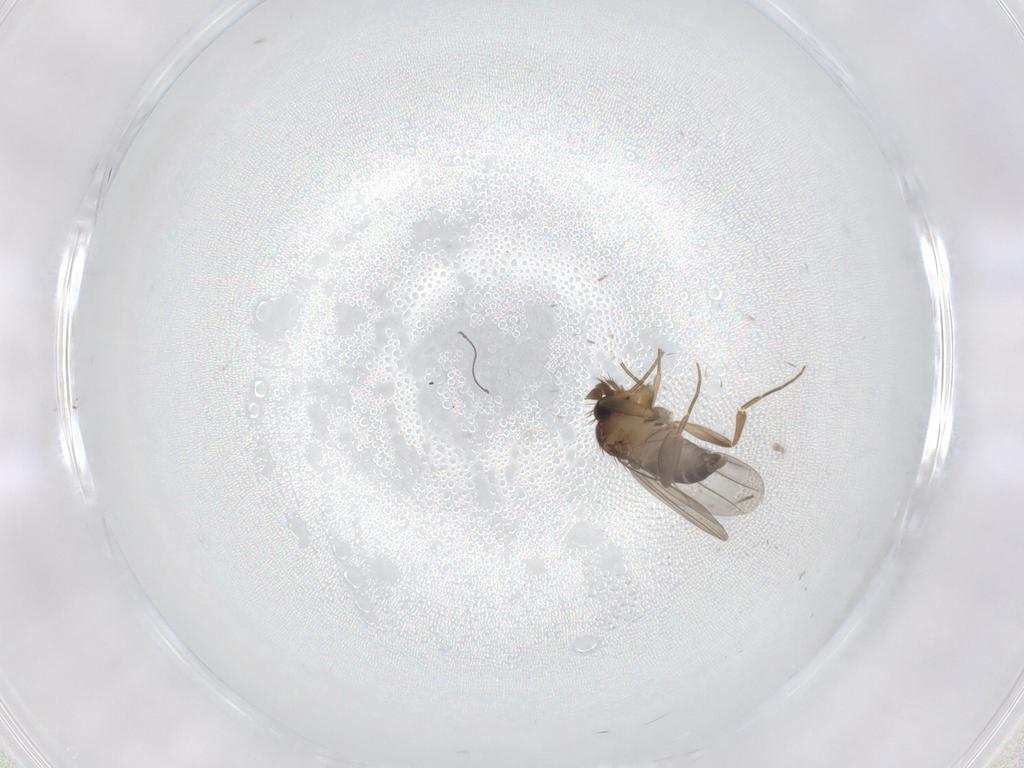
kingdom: Animalia
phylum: Arthropoda
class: Insecta
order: Diptera
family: Phoridae
